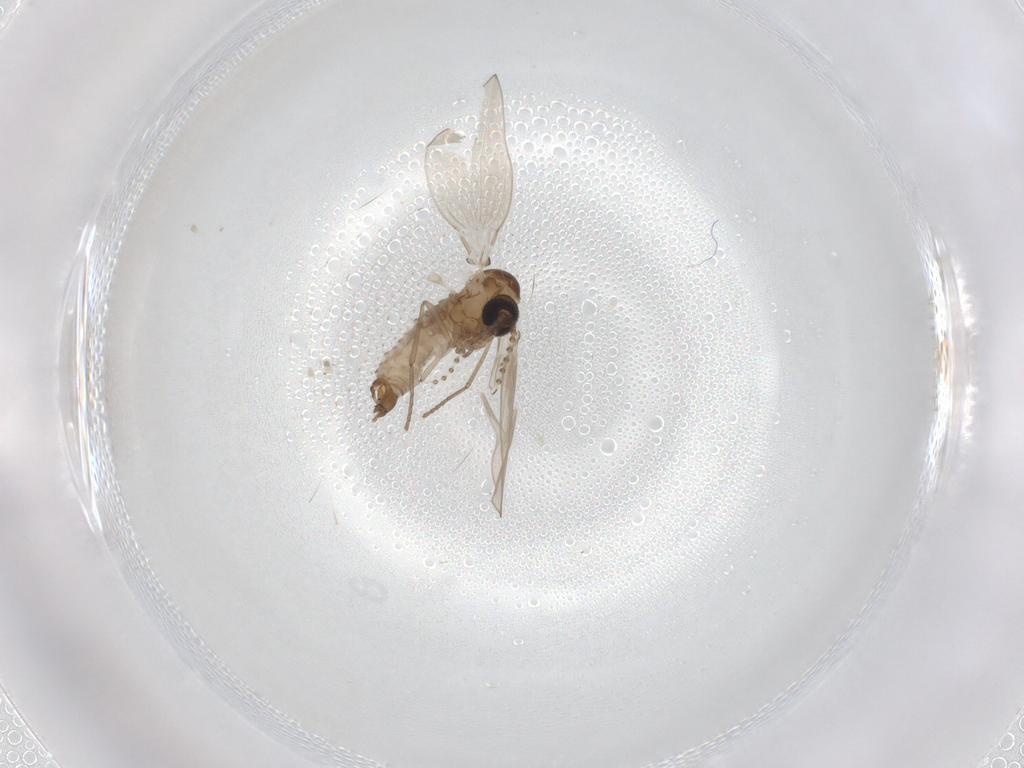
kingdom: Animalia
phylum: Arthropoda
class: Insecta
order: Diptera
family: Psychodidae
